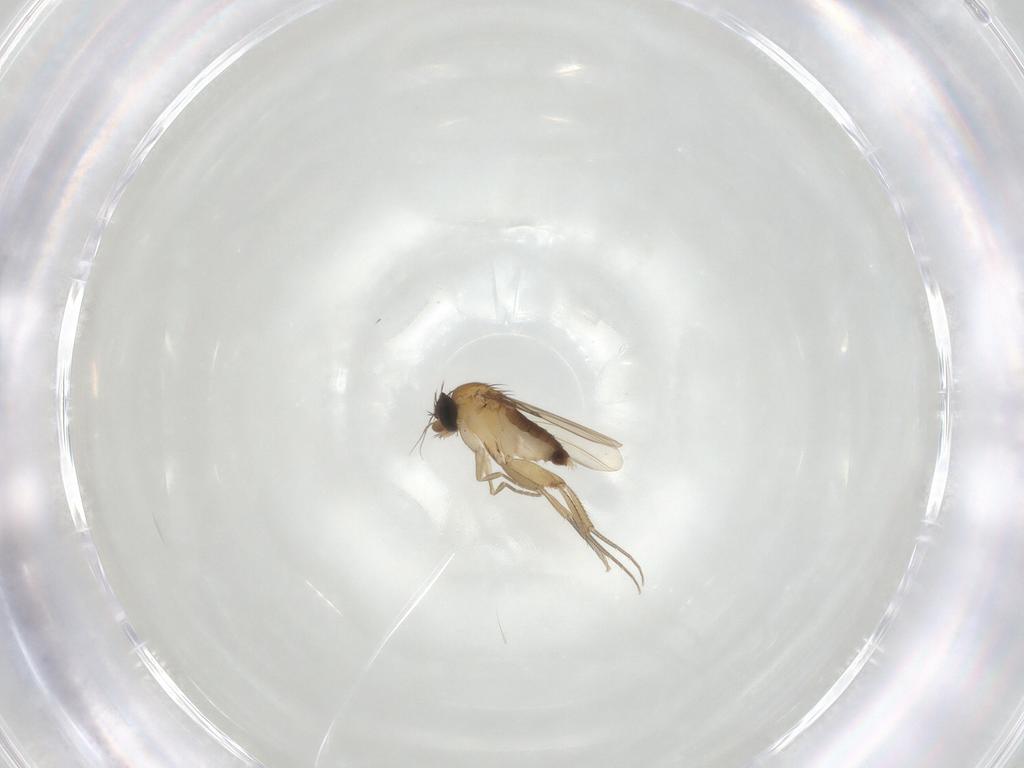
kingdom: Animalia
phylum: Arthropoda
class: Insecta
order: Diptera
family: Phoridae
